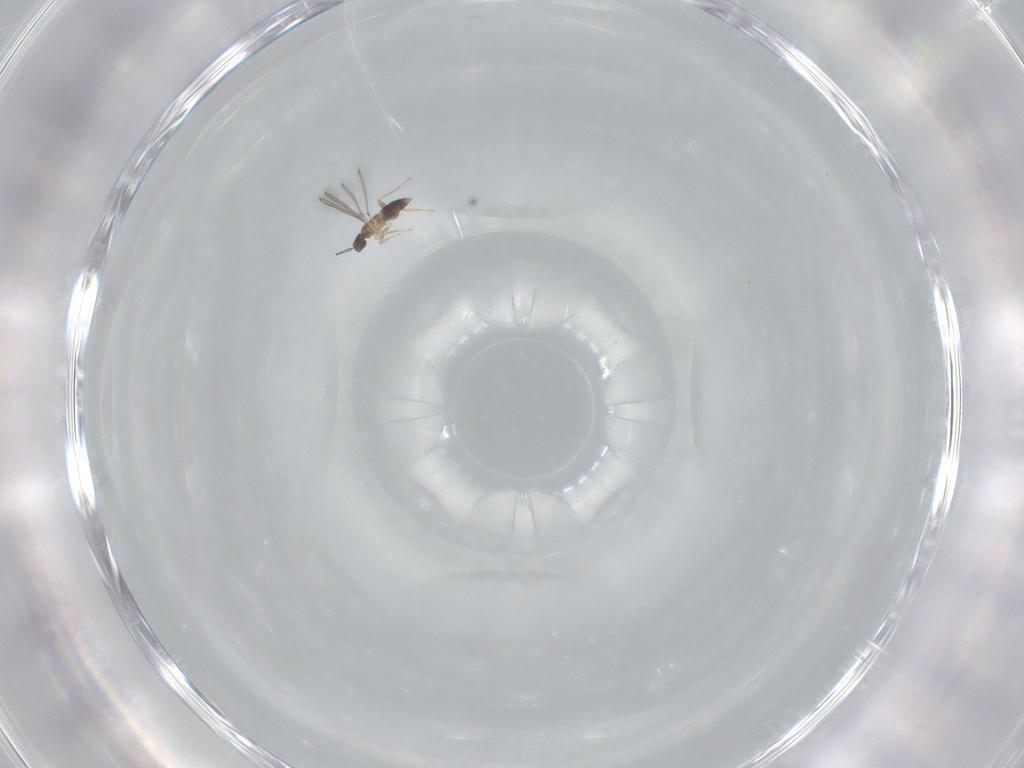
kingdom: Animalia
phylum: Arthropoda
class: Insecta
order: Hymenoptera
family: Mymaridae
